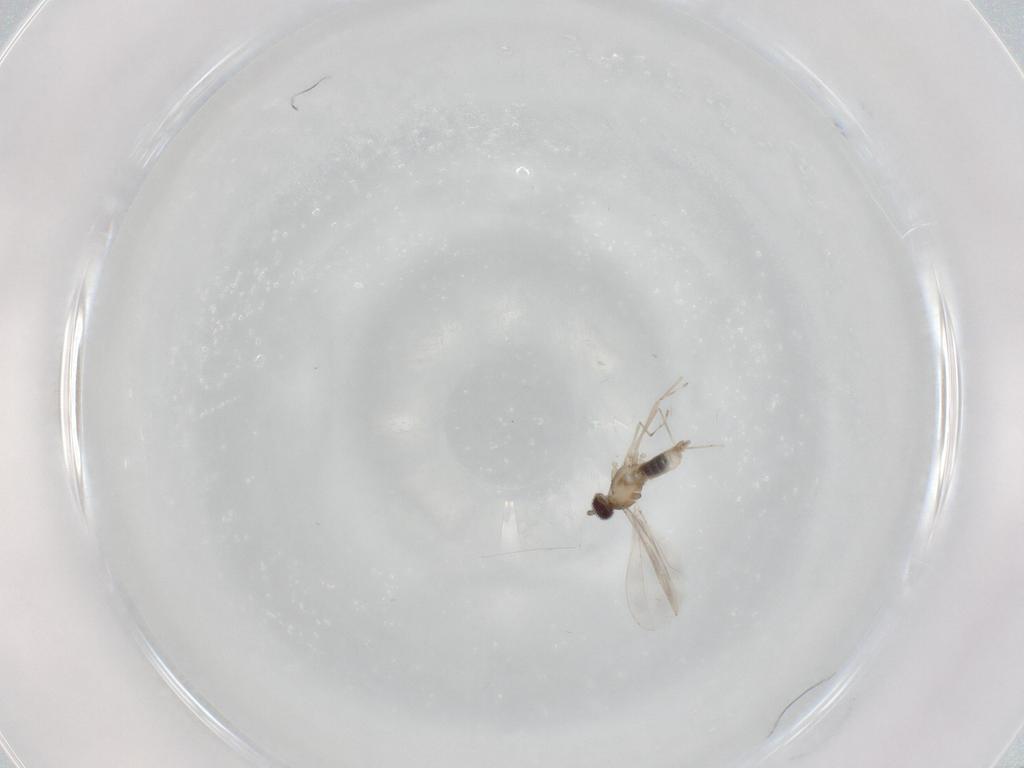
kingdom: Animalia
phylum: Arthropoda
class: Insecta
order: Diptera
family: Cecidomyiidae
